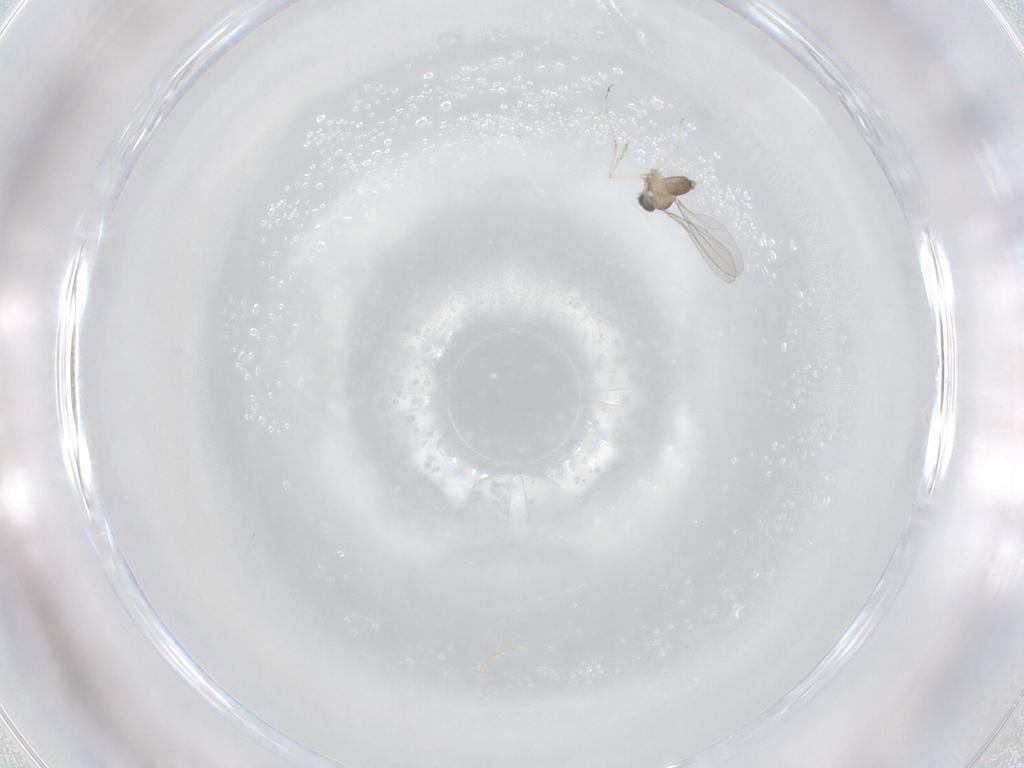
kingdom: Animalia
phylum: Arthropoda
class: Insecta
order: Diptera
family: Cecidomyiidae
